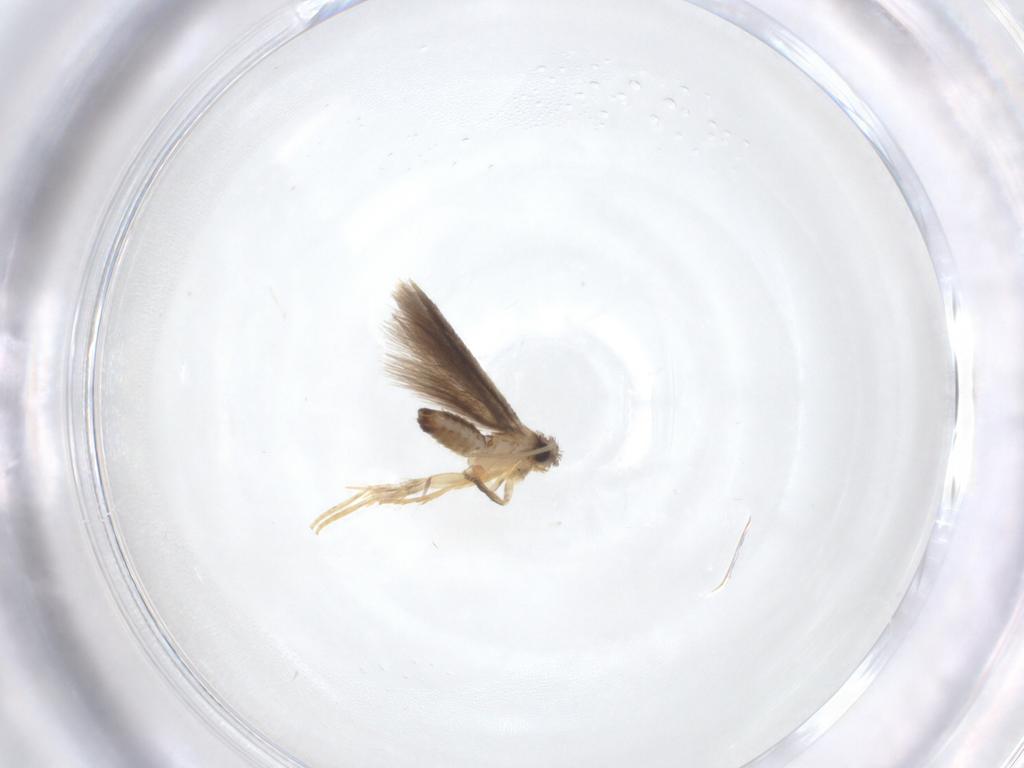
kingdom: Animalia
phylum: Arthropoda
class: Insecta
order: Lepidoptera
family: Nepticulidae
